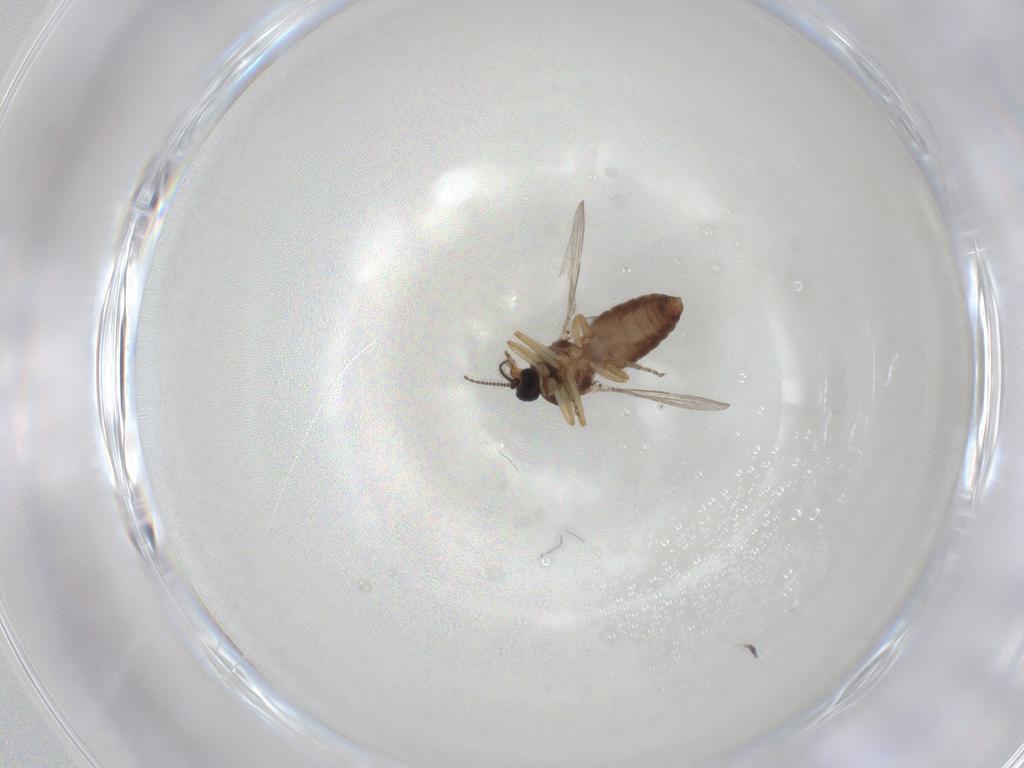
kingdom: Animalia
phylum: Arthropoda
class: Insecta
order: Diptera
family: Ceratopogonidae
